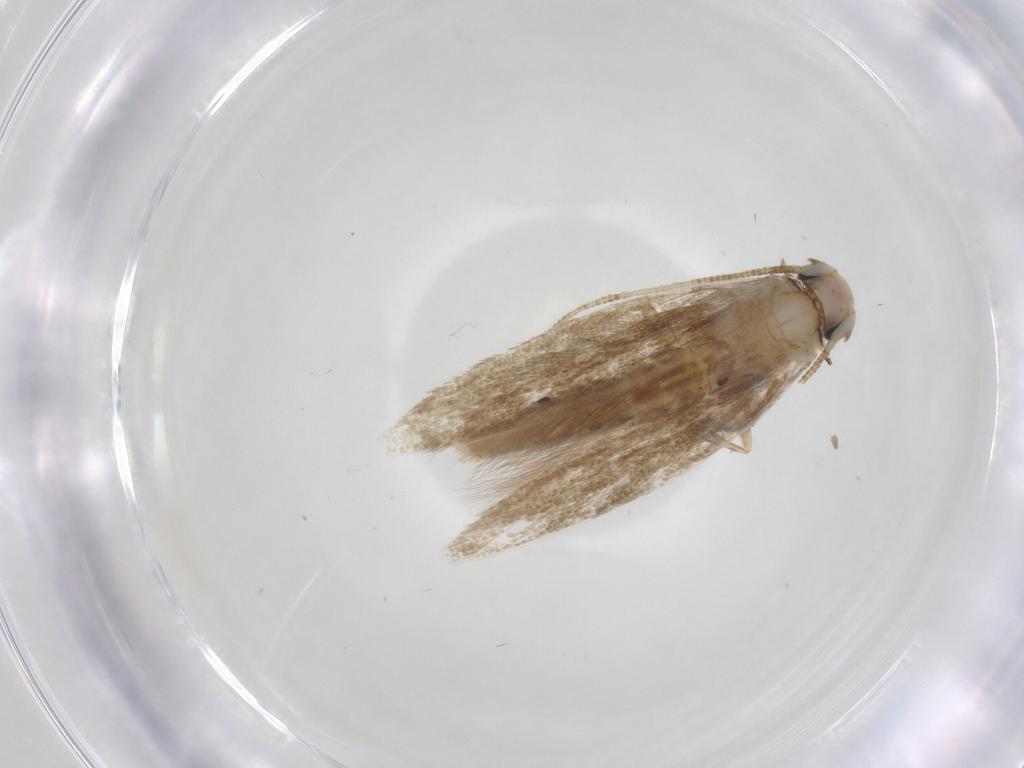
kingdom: Animalia
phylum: Arthropoda
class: Insecta
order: Lepidoptera
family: Tineidae
